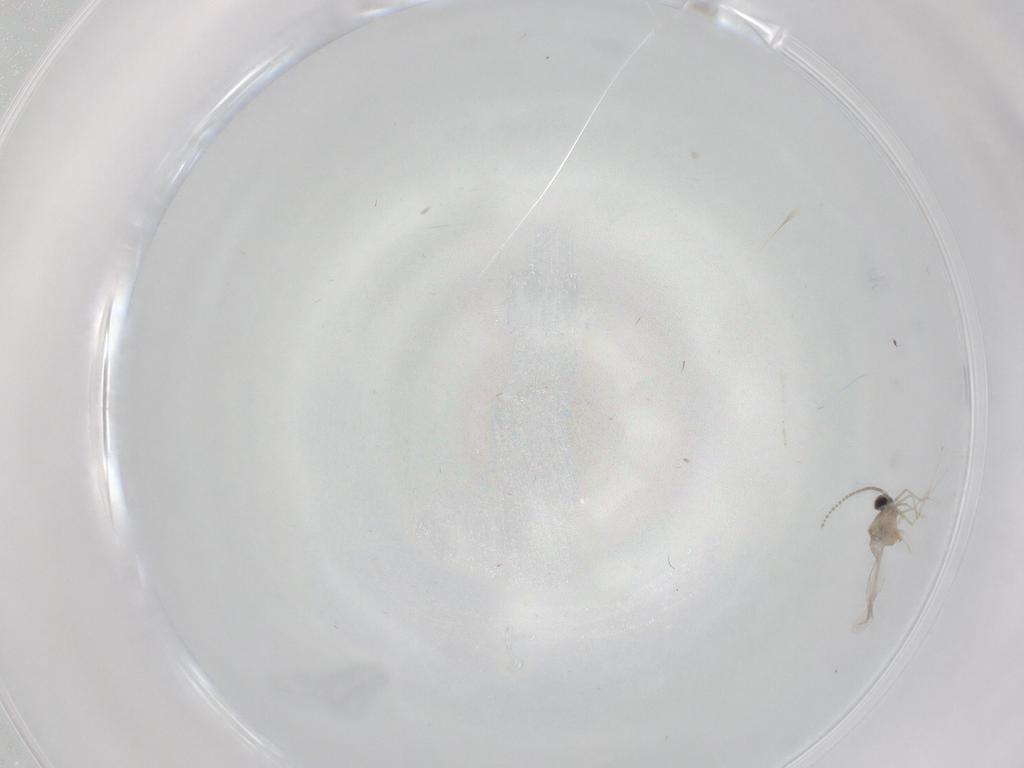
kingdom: Animalia
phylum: Arthropoda
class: Insecta
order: Diptera
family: Cecidomyiidae
